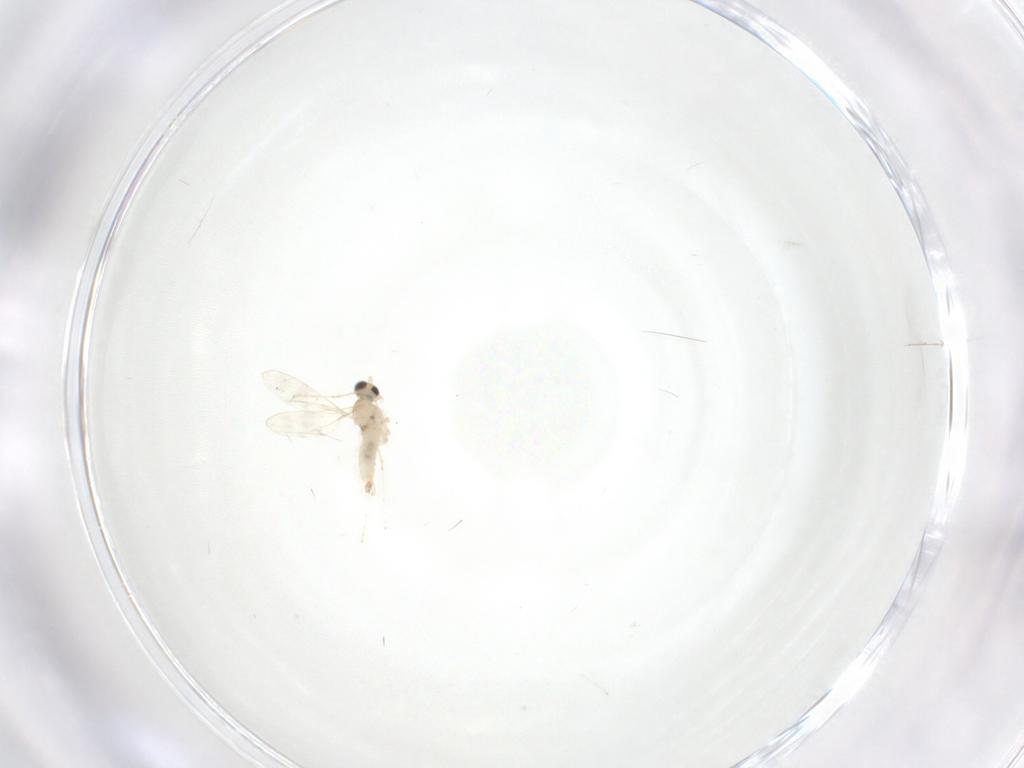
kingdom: Animalia
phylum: Arthropoda
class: Insecta
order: Diptera
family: Cecidomyiidae
